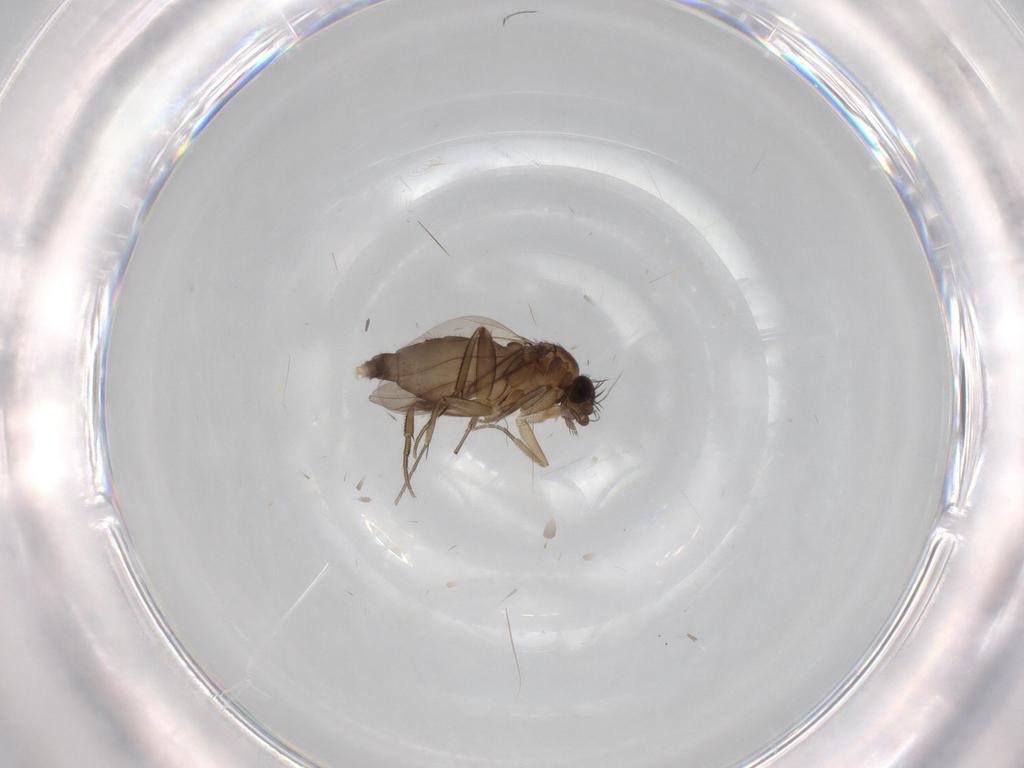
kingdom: Animalia
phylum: Arthropoda
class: Insecta
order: Diptera
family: Phoridae
